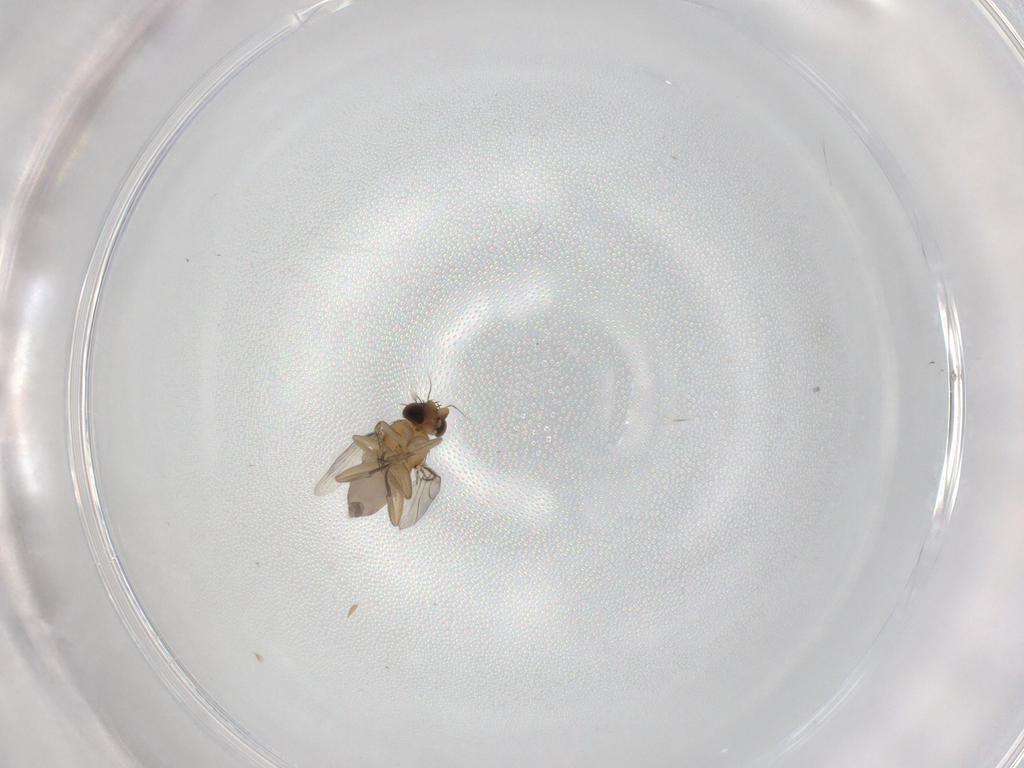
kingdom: Animalia
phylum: Arthropoda
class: Insecta
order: Diptera
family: Phoridae
